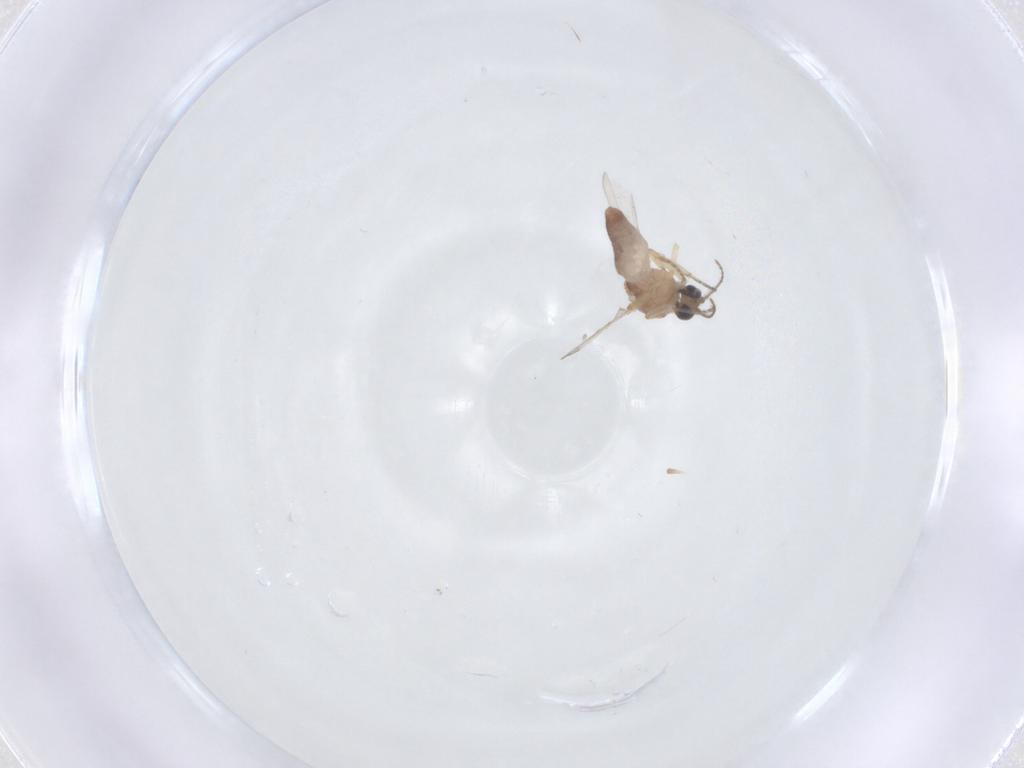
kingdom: Animalia
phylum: Arthropoda
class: Insecta
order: Diptera
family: Ceratopogonidae
